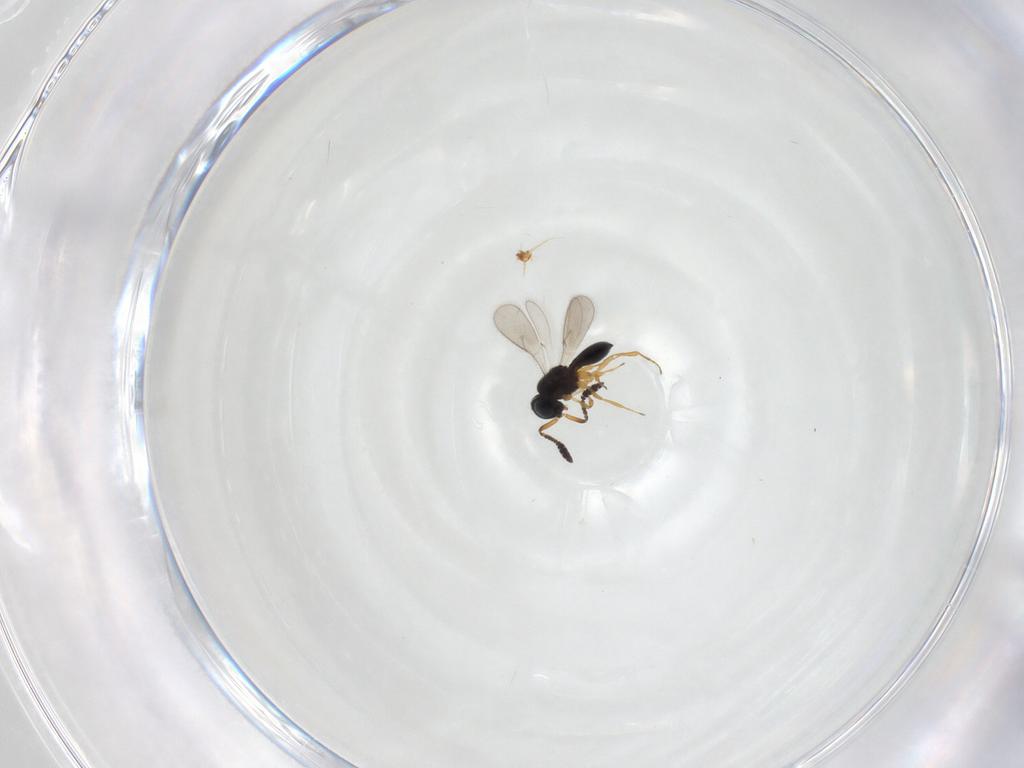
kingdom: Animalia
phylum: Arthropoda
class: Insecta
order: Hymenoptera
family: Scelionidae
